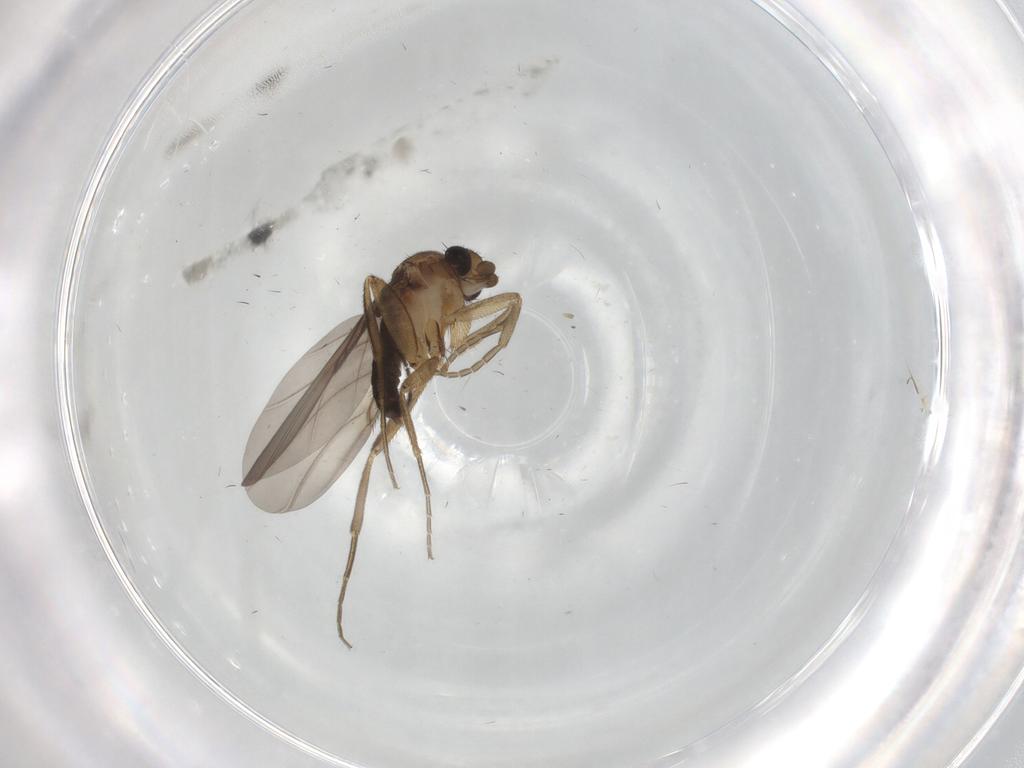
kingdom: Animalia
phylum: Arthropoda
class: Insecta
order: Diptera
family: Phoridae
